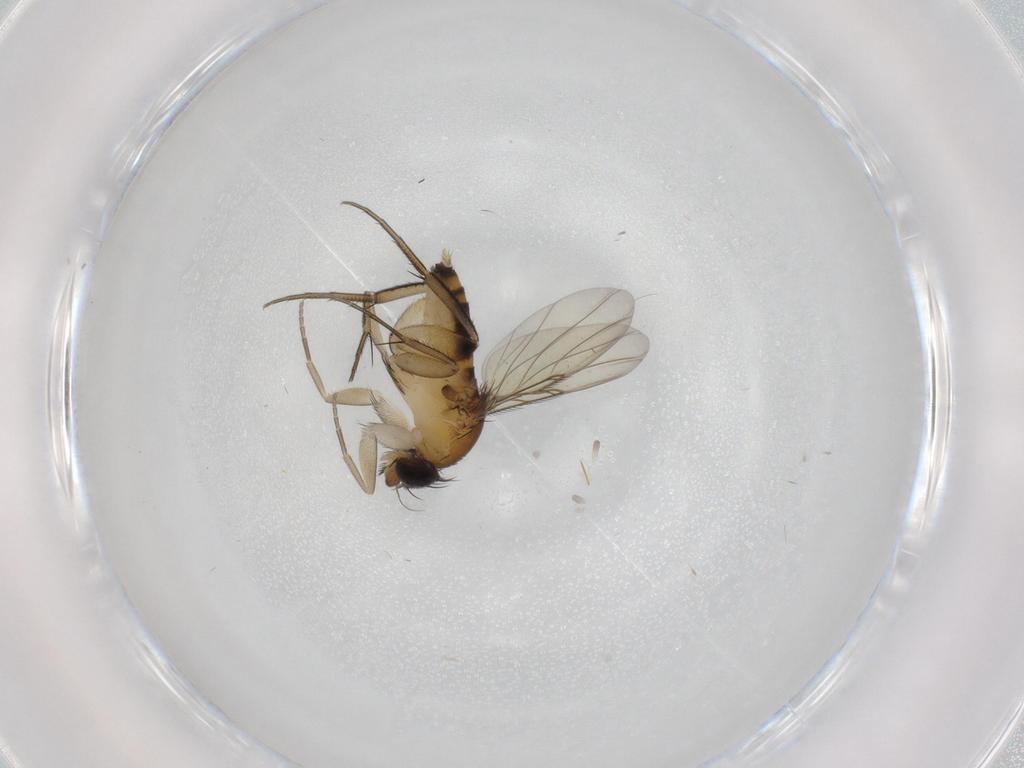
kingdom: Animalia
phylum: Arthropoda
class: Insecta
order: Diptera
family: Phoridae
